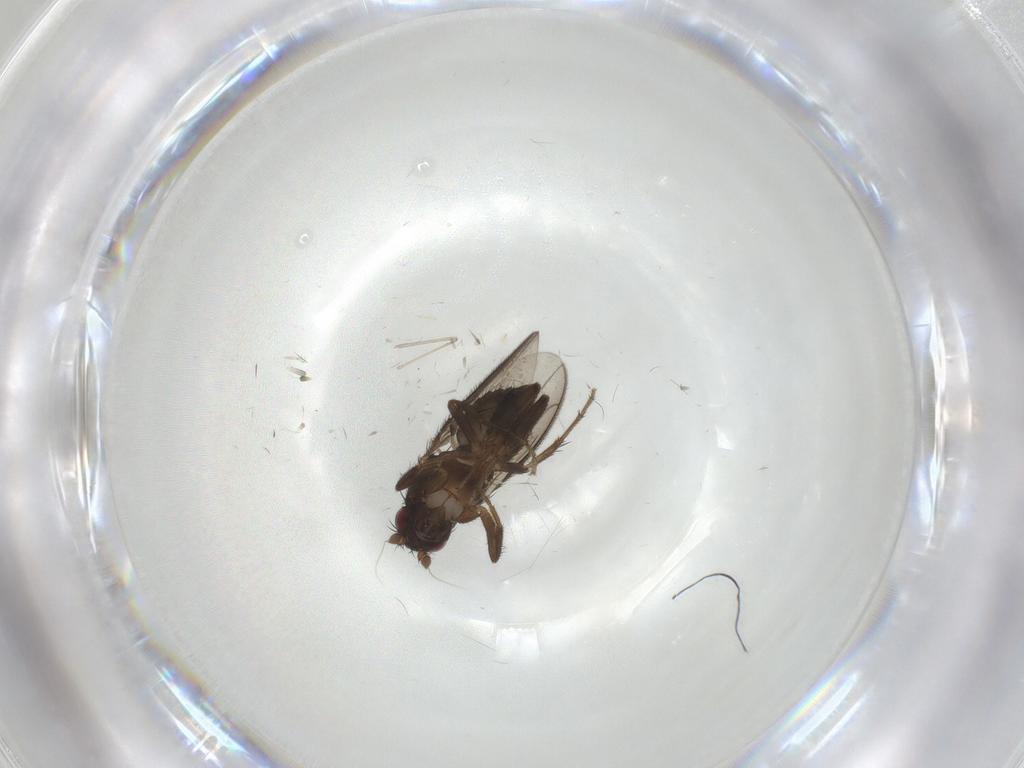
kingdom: Animalia
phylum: Arthropoda
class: Insecta
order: Diptera
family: Sphaeroceridae
